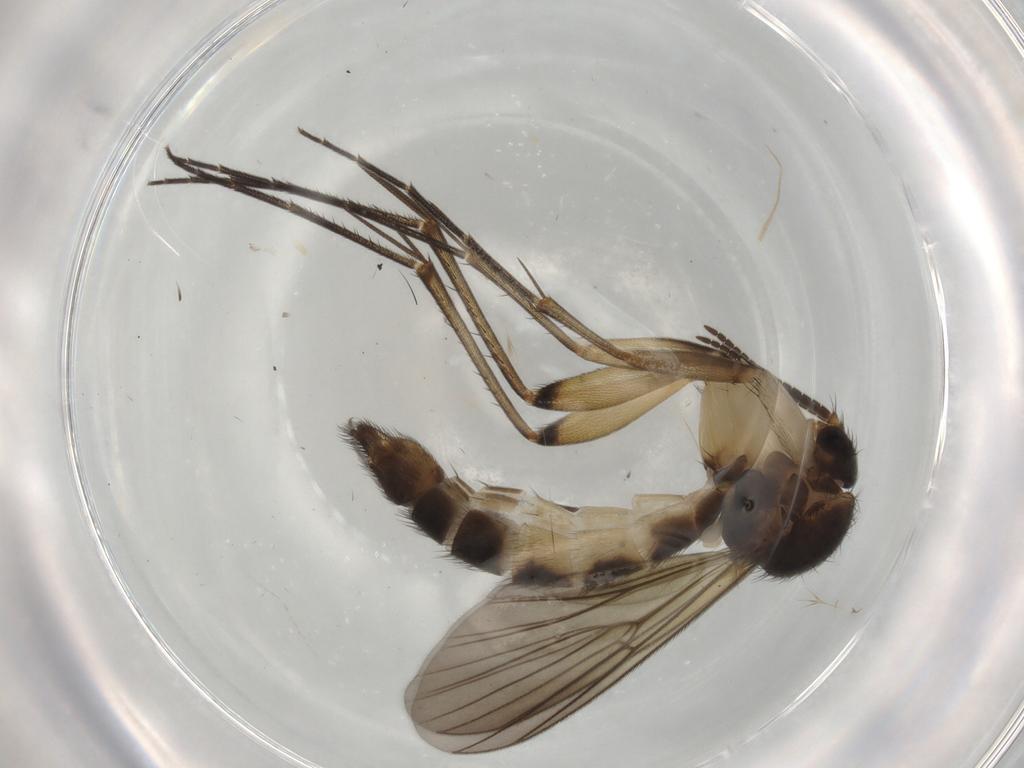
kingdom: Animalia
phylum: Arthropoda
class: Insecta
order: Diptera
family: Mycetophilidae
